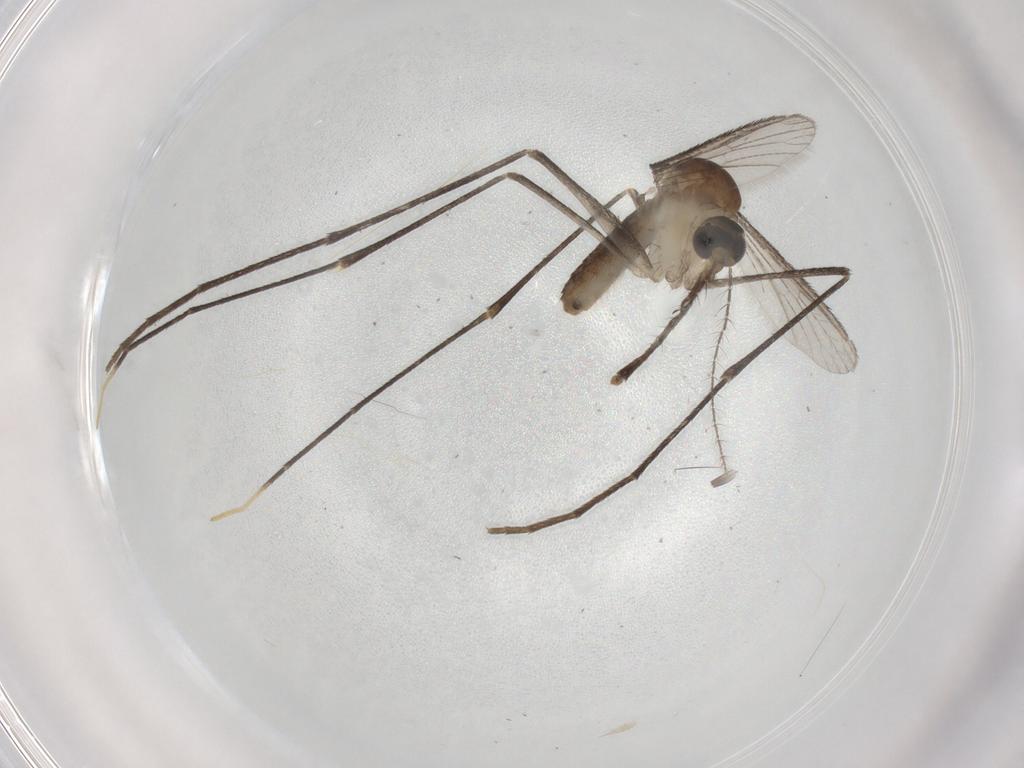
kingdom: Animalia
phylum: Arthropoda
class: Insecta
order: Diptera
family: Culicidae
